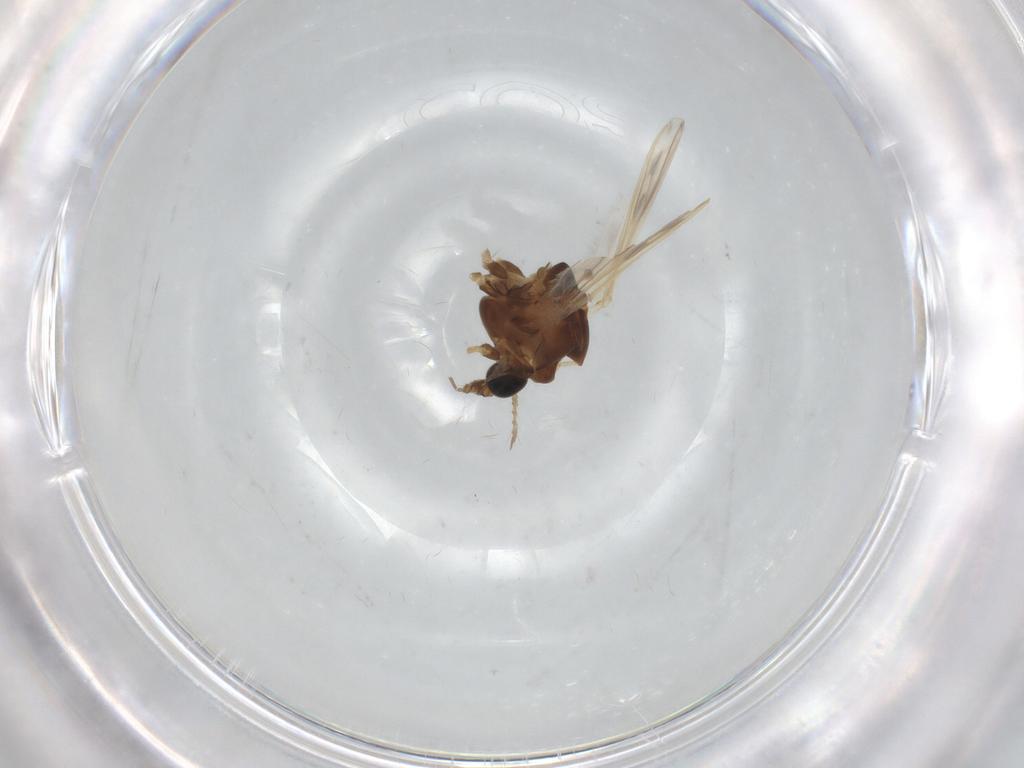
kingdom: Animalia
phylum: Arthropoda
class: Insecta
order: Diptera
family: Chironomidae
